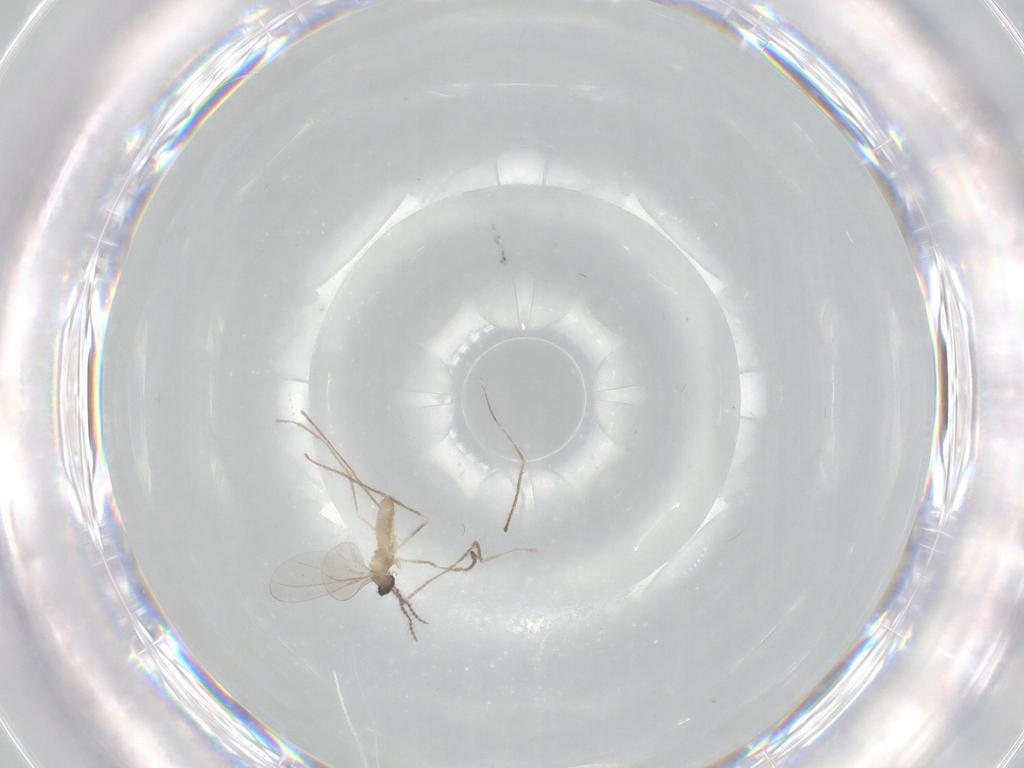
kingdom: Animalia
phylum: Arthropoda
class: Insecta
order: Diptera
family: Cecidomyiidae
